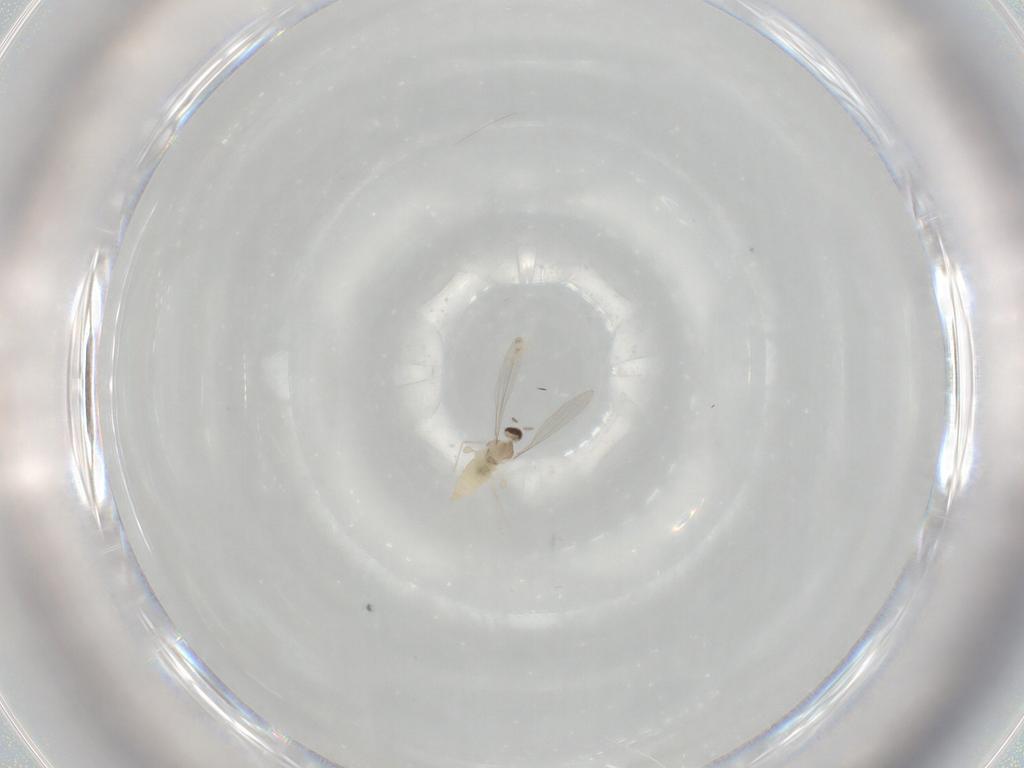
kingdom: Animalia
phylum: Arthropoda
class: Insecta
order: Diptera
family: Cecidomyiidae
